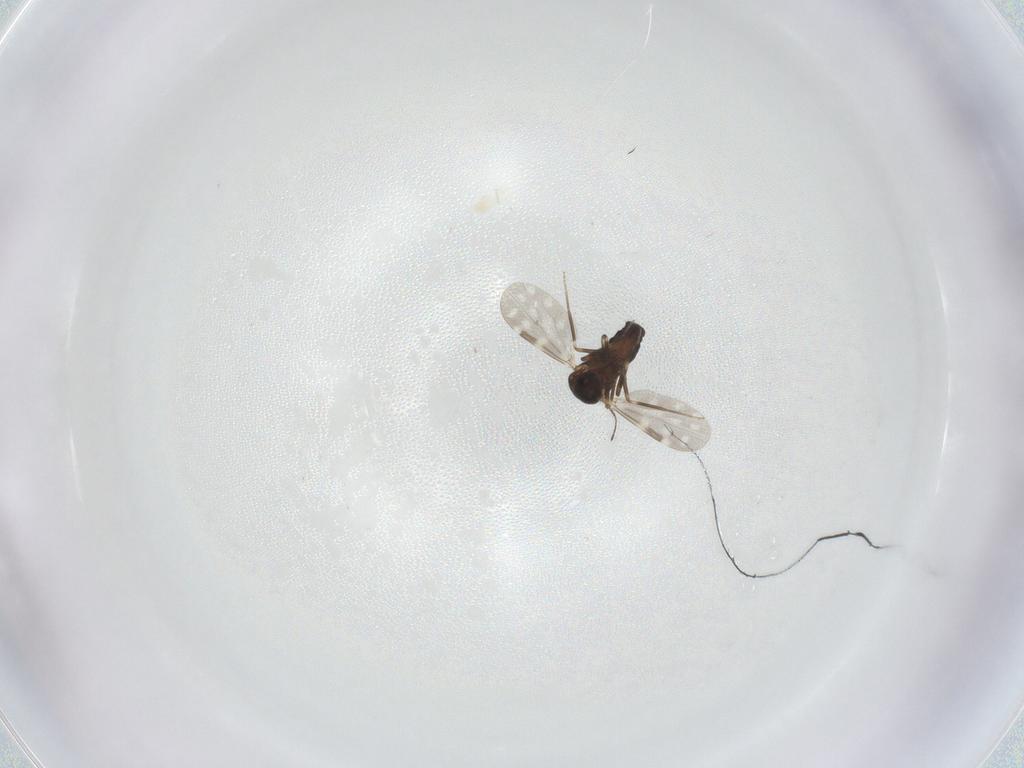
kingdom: Animalia
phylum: Arthropoda
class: Insecta
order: Diptera
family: Ceratopogonidae
